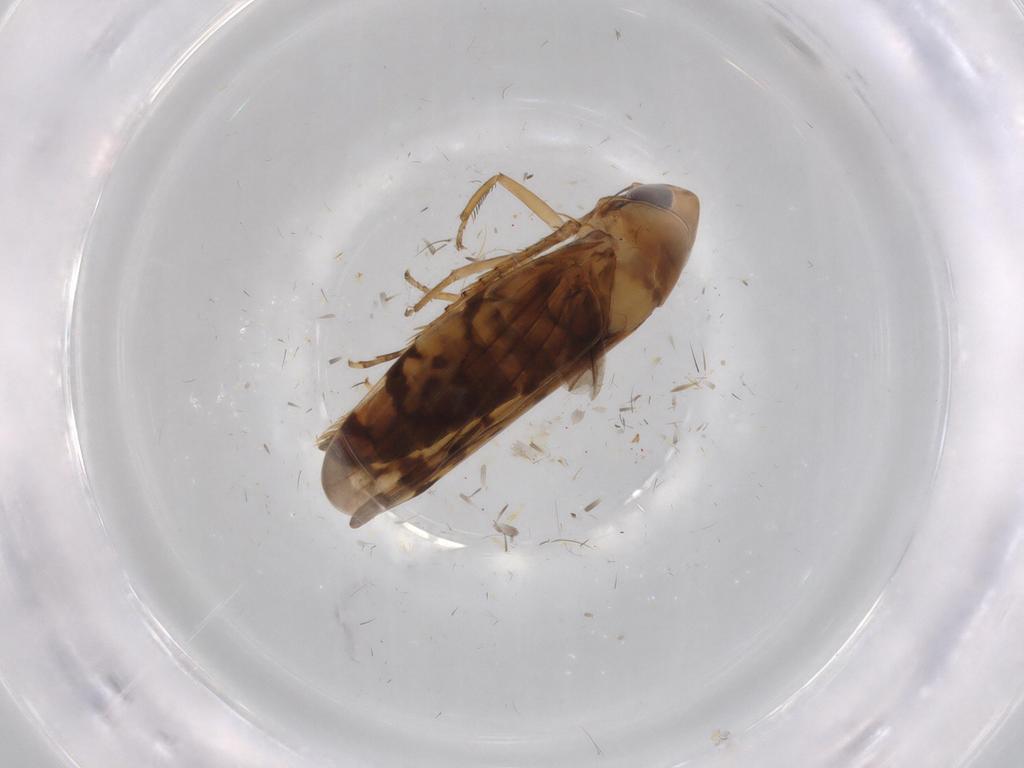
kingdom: Animalia
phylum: Arthropoda
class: Insecta
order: Hemiptera
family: Cicadellidae
